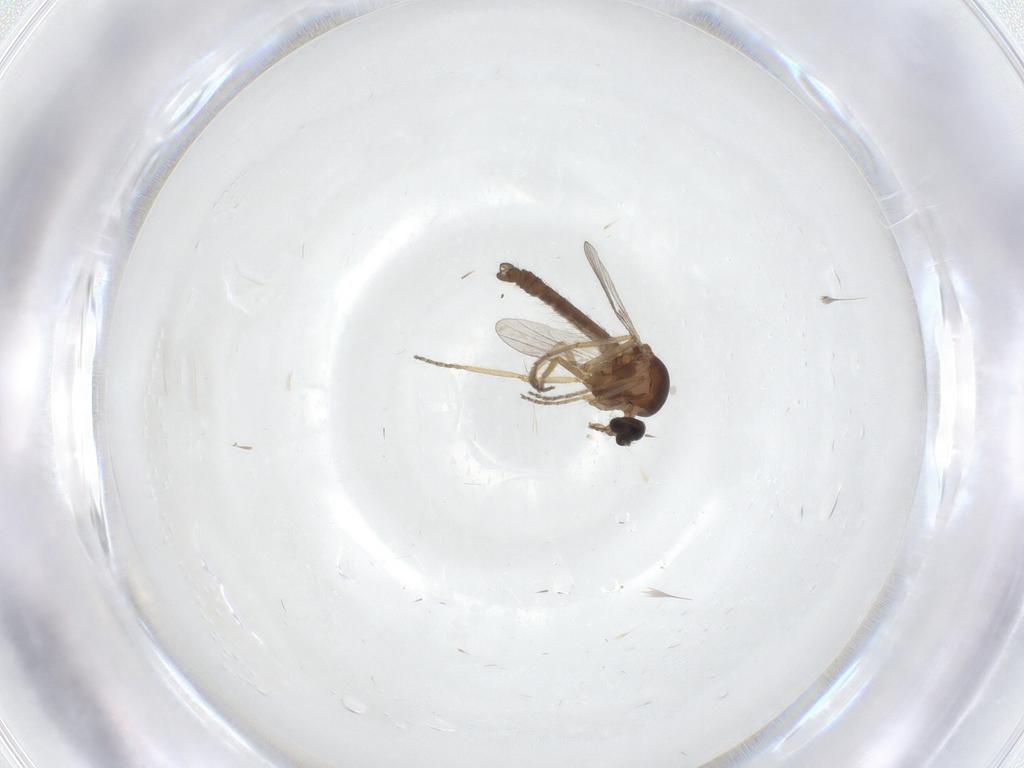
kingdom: Animalia
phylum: Arthropoda
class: Insecta
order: Diptera
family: Ceratopogonidae
